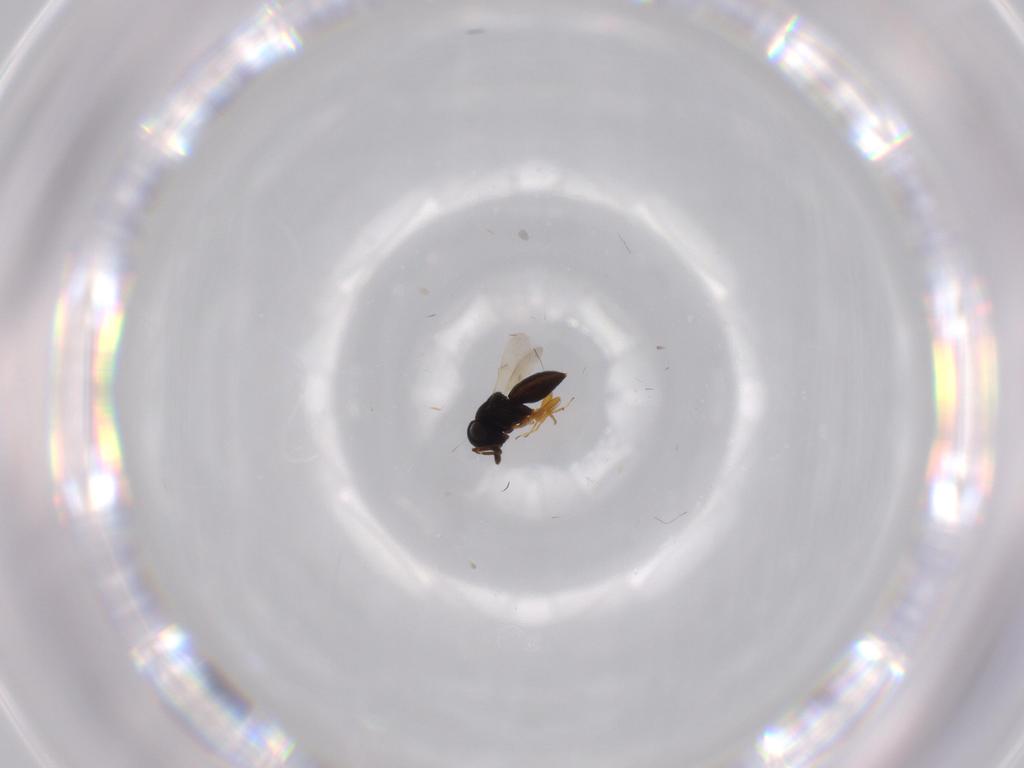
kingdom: Animalia
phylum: Arthropoda
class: Insecta
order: Hymenoptera
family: Scelionidae
